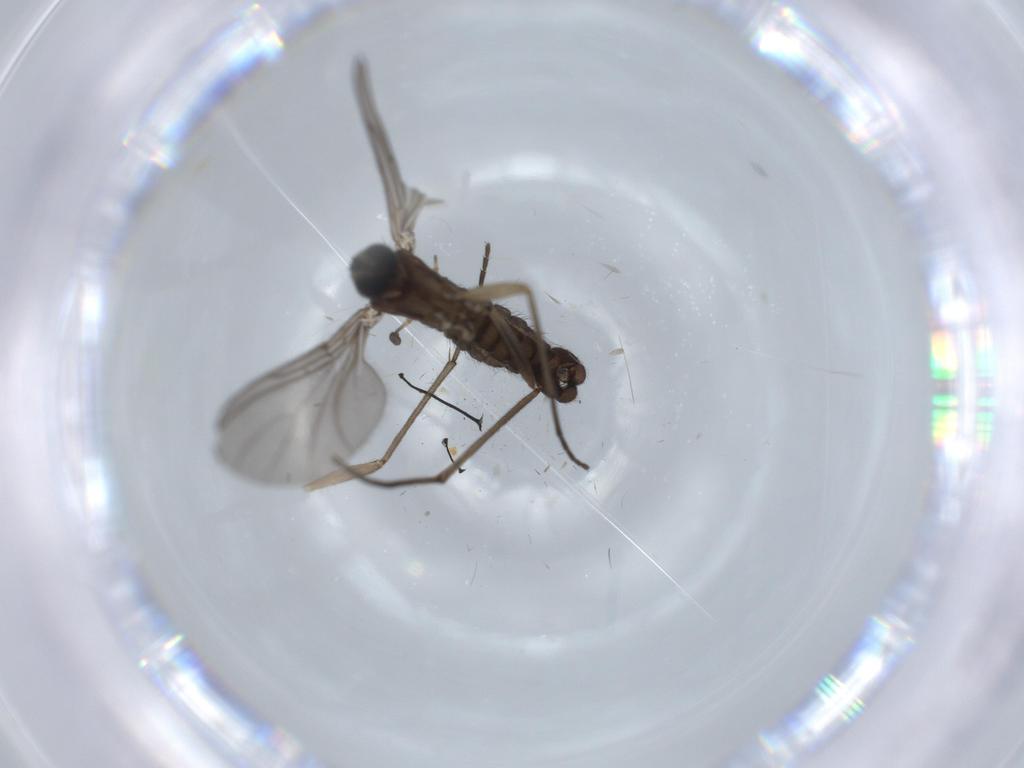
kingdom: Animalia
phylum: Arthropoda
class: Insecta
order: Diptera
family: Sciaridae
